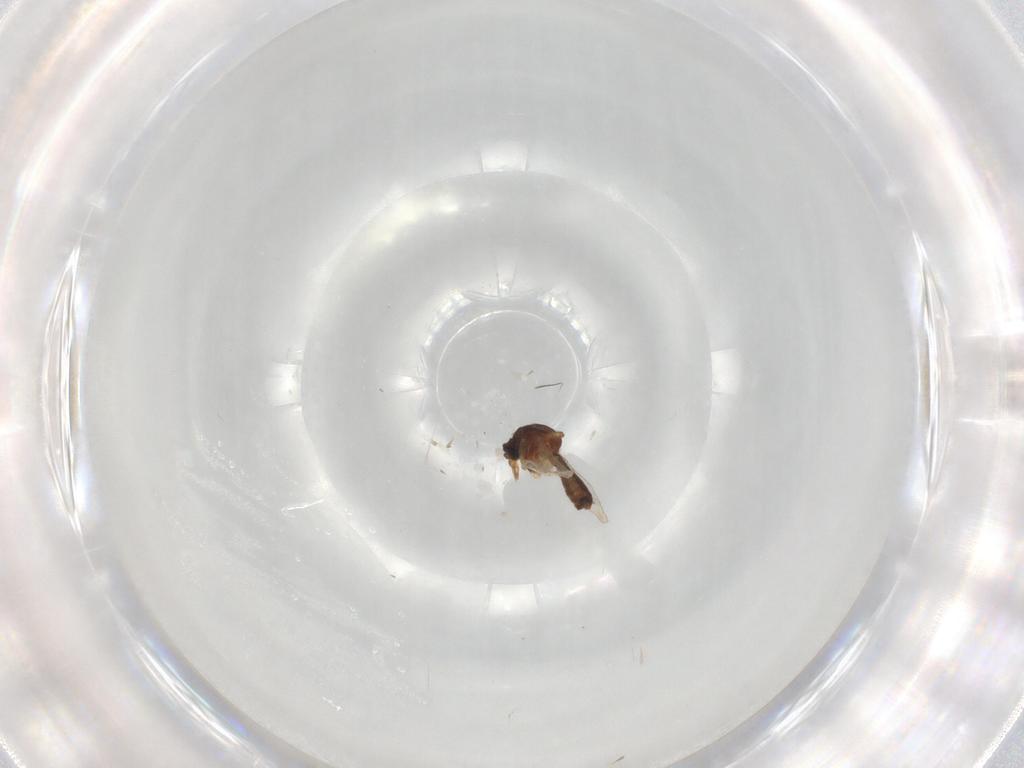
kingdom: Animalia
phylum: Arthropoda
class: Insecta
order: Diptera
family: Ceratopogonidae
